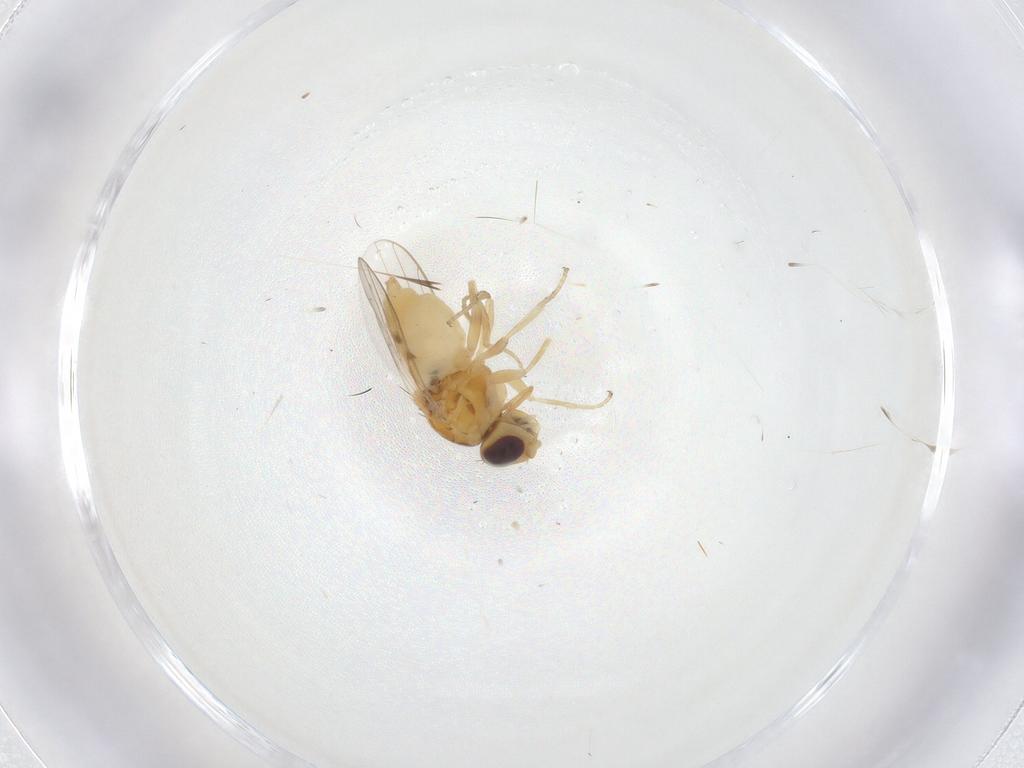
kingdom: Animalia
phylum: Arthropoda
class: Insecta
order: Diptera
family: Chloropidae
